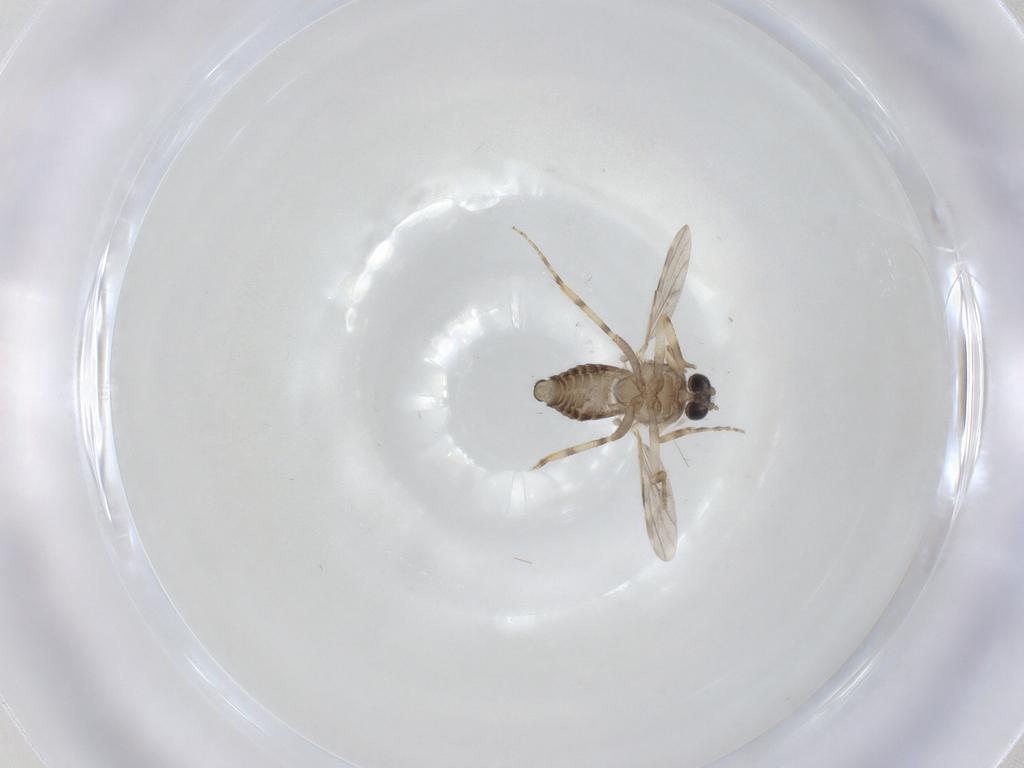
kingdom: Animalia
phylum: Arthropoda
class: Insecta
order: Diptera
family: Ceratopogonidae
